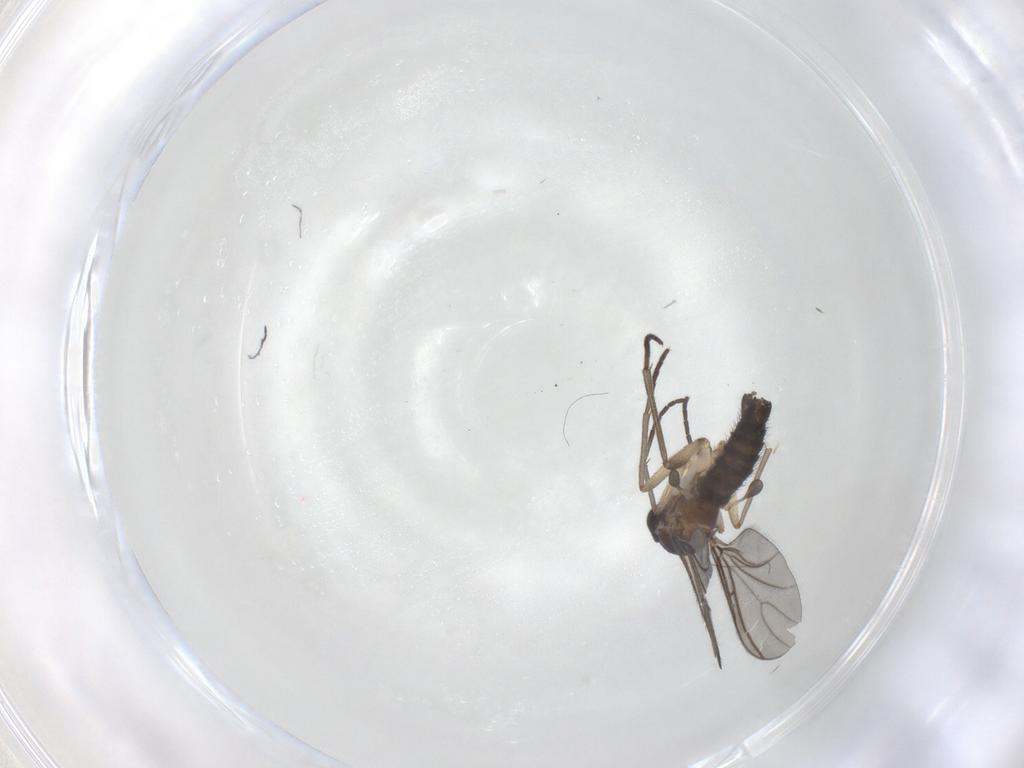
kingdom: Animalia
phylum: Arthropoda
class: Insecta
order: Diptera
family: Sciaridae
